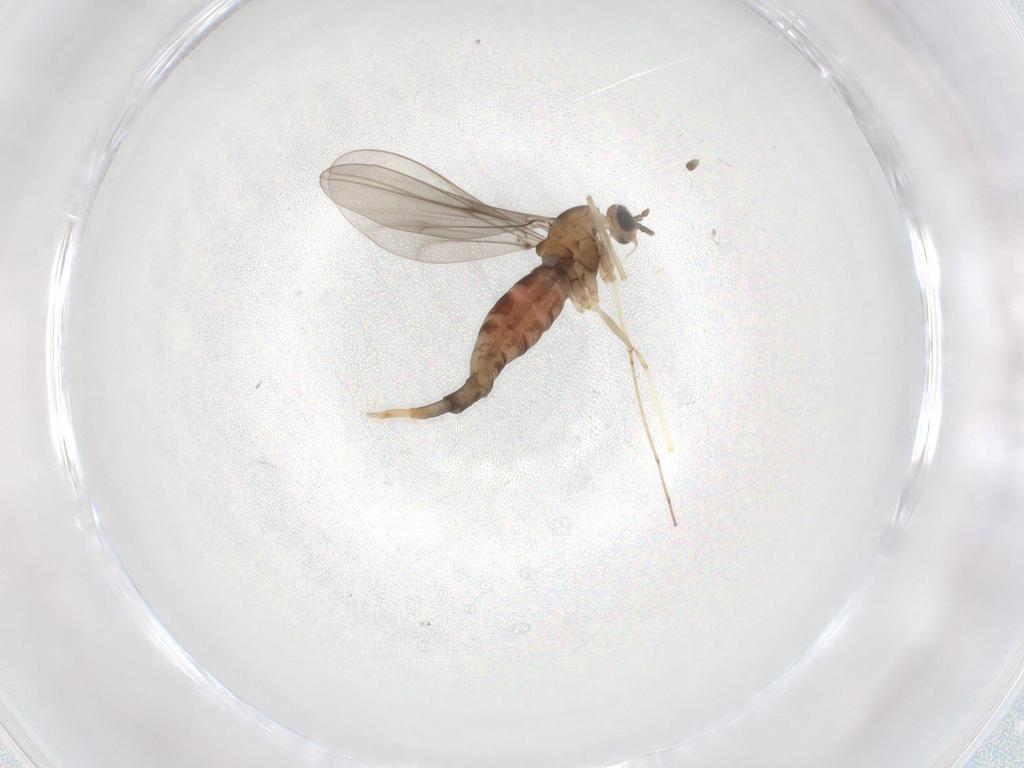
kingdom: Animalia
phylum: Arthropoda
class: Insecta
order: Diptera
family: Cecidomyiidae
